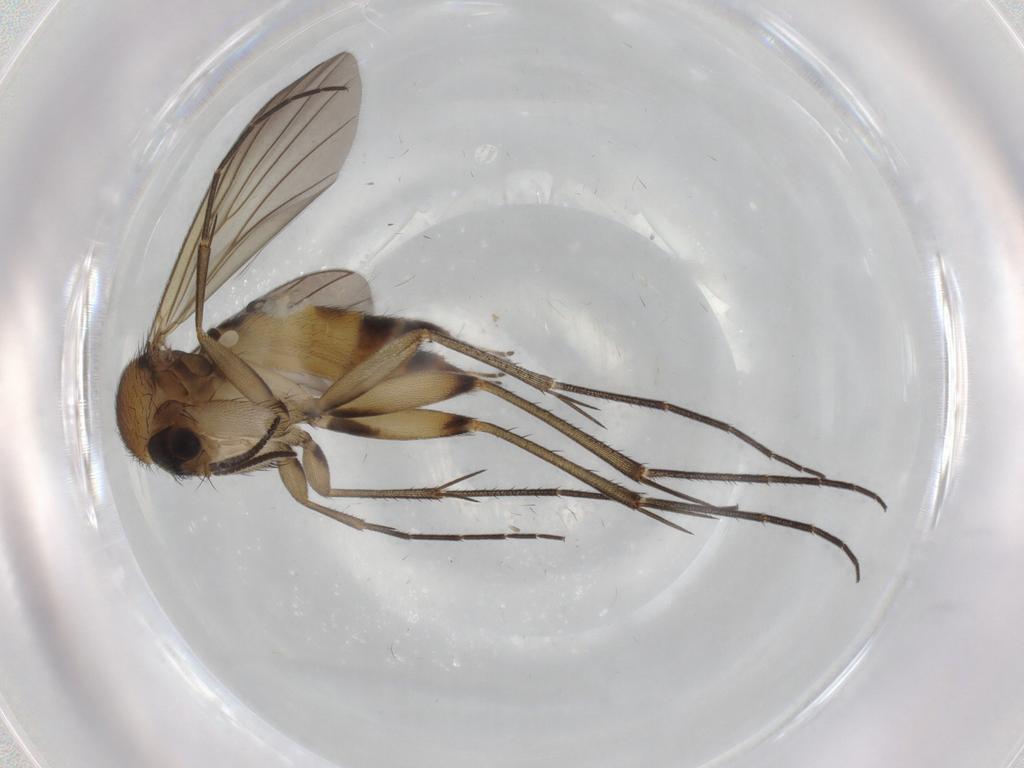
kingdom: Animalia
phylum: Arthropoda
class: Insecta
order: Diptera
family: Mycetophilidae
